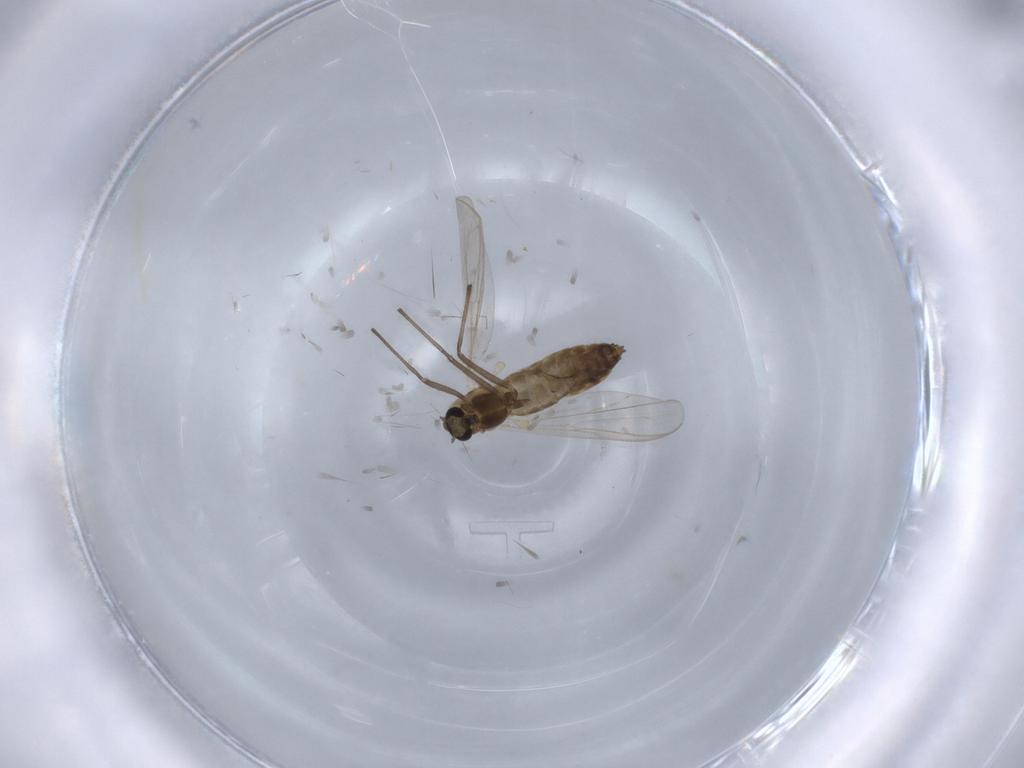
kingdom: Animalia
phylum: Arthropoda
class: Insecta
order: Diptera
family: Chironomidae
